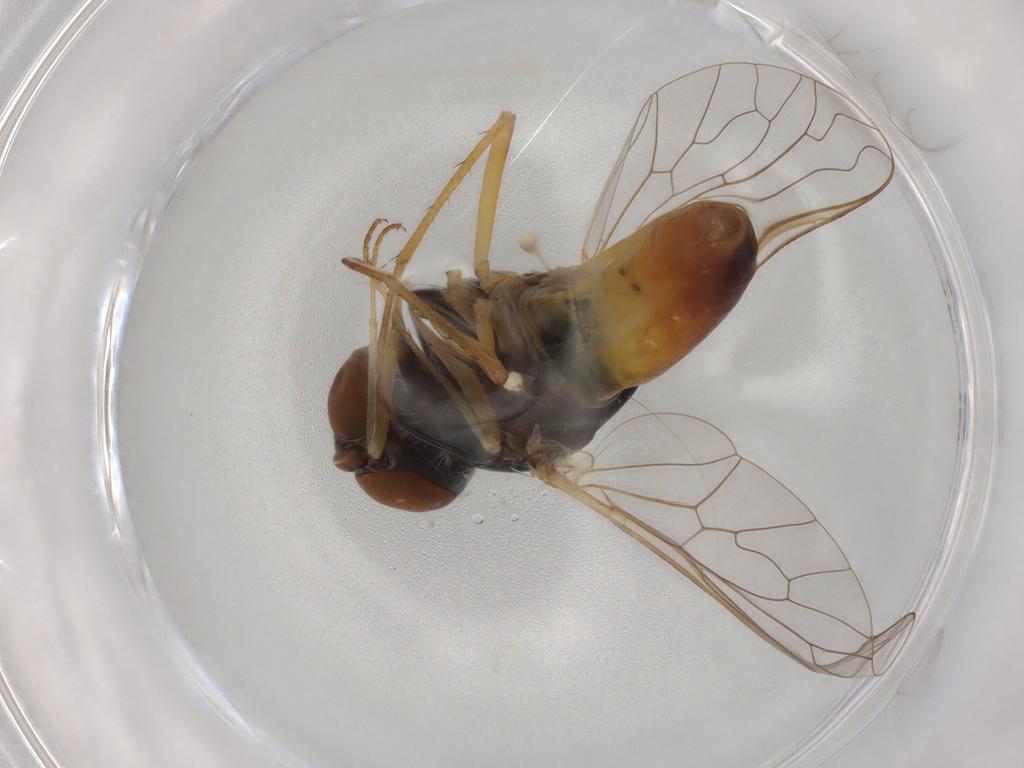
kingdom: Animalia
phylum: Arthropoda
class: Insecta
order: Diptera
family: Bombyliidae
